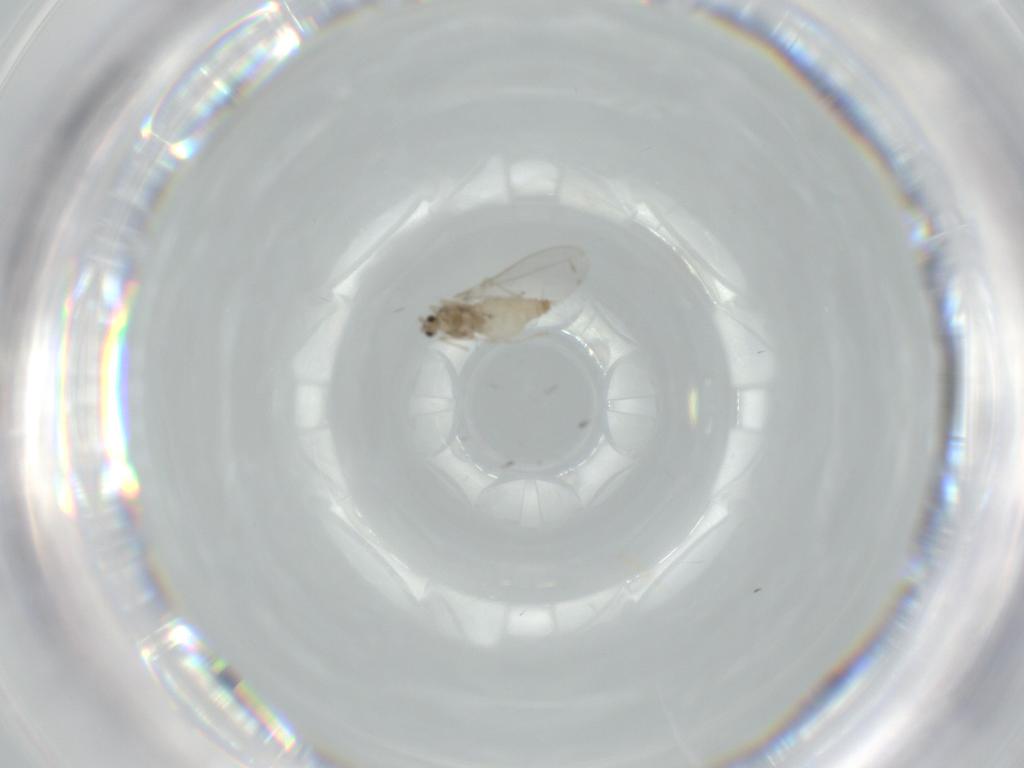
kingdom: Animalia
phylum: Arthropoda
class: Insecta
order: Diptera
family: Cecidomyiidae
